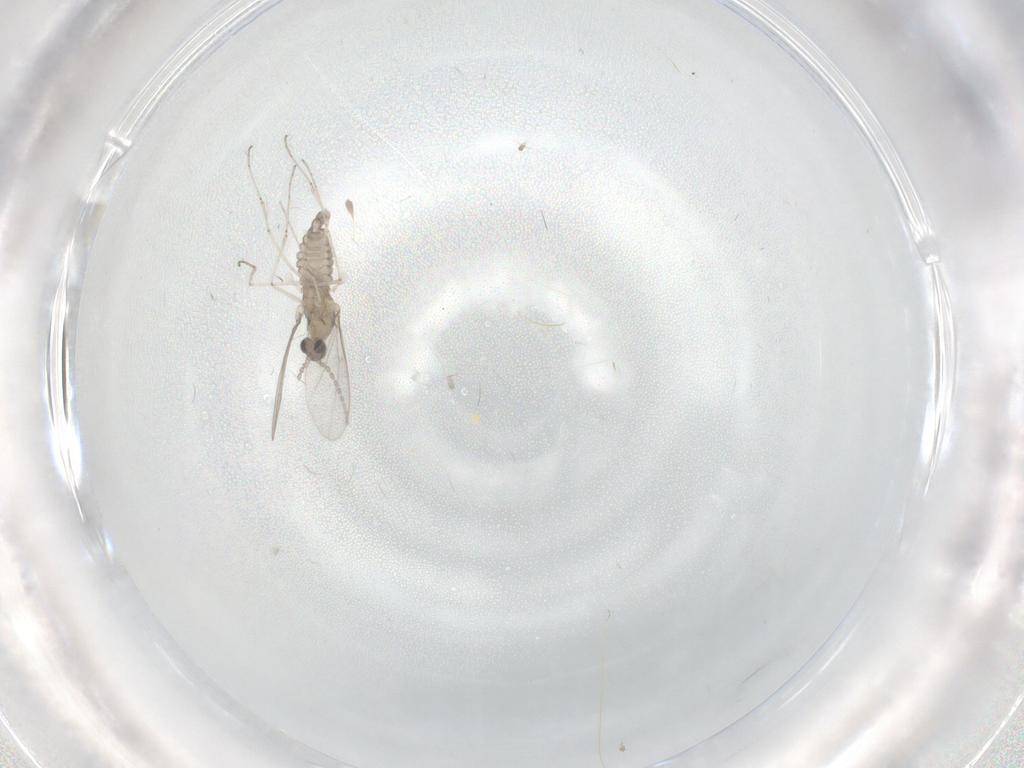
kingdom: Animalia
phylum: Arthropoda
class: Insecta
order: Diptera
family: Cecidomyiidae
